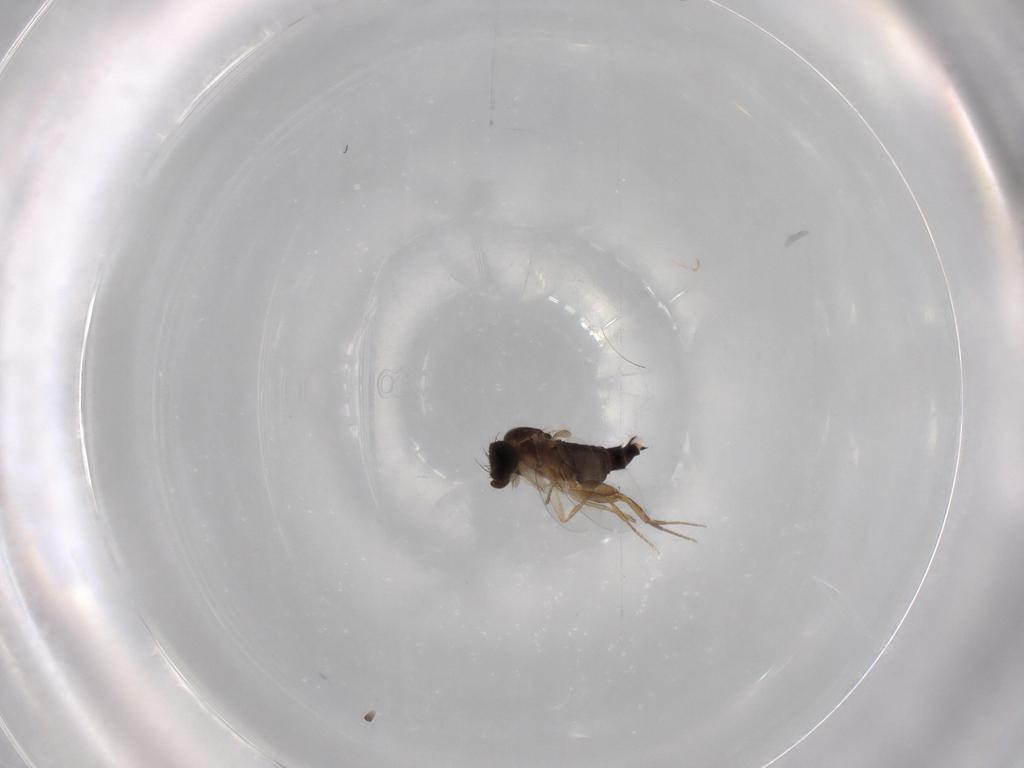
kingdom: Animalia
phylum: Arthropoda
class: Insecta
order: Diptera
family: Phoridae
